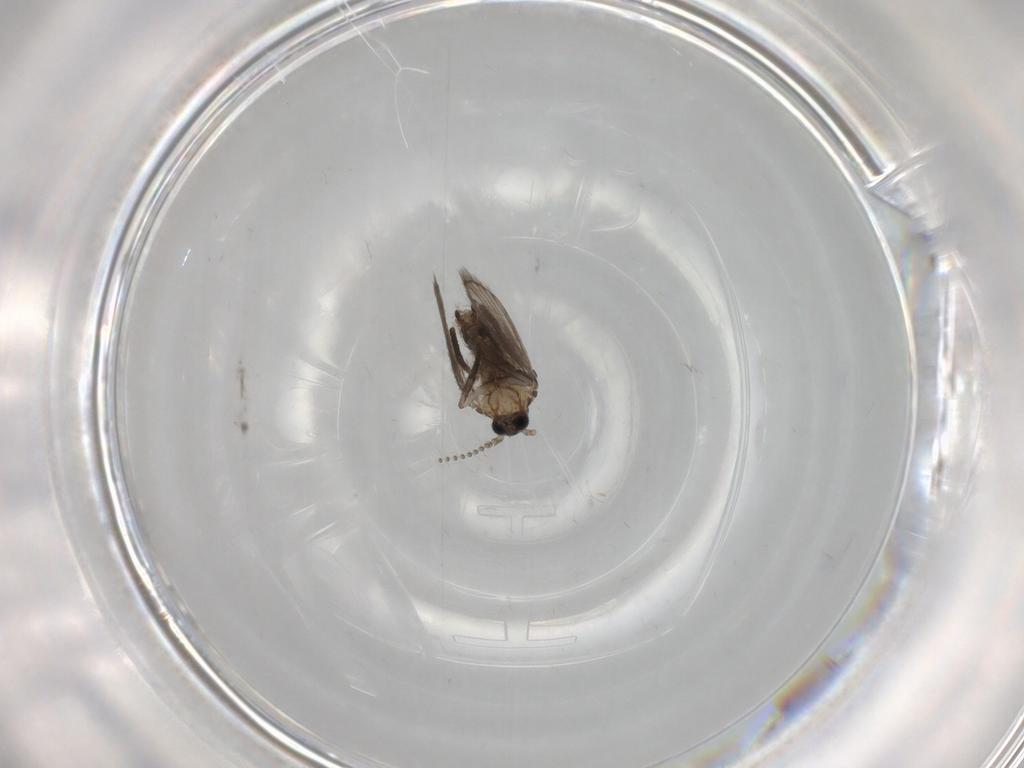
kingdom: Animalia
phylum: Arthropoda
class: Insecta
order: Diptera
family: Psychodidae
